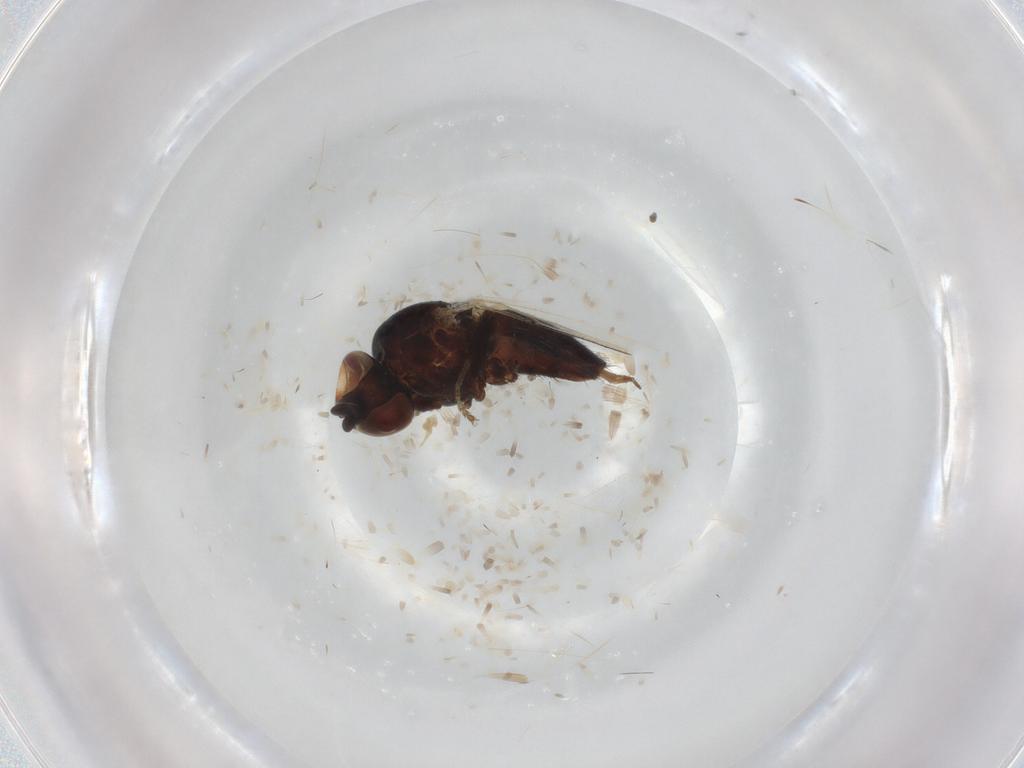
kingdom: Animalia
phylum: Arthropoda
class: Insecta
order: Diptera
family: Milichiidae
